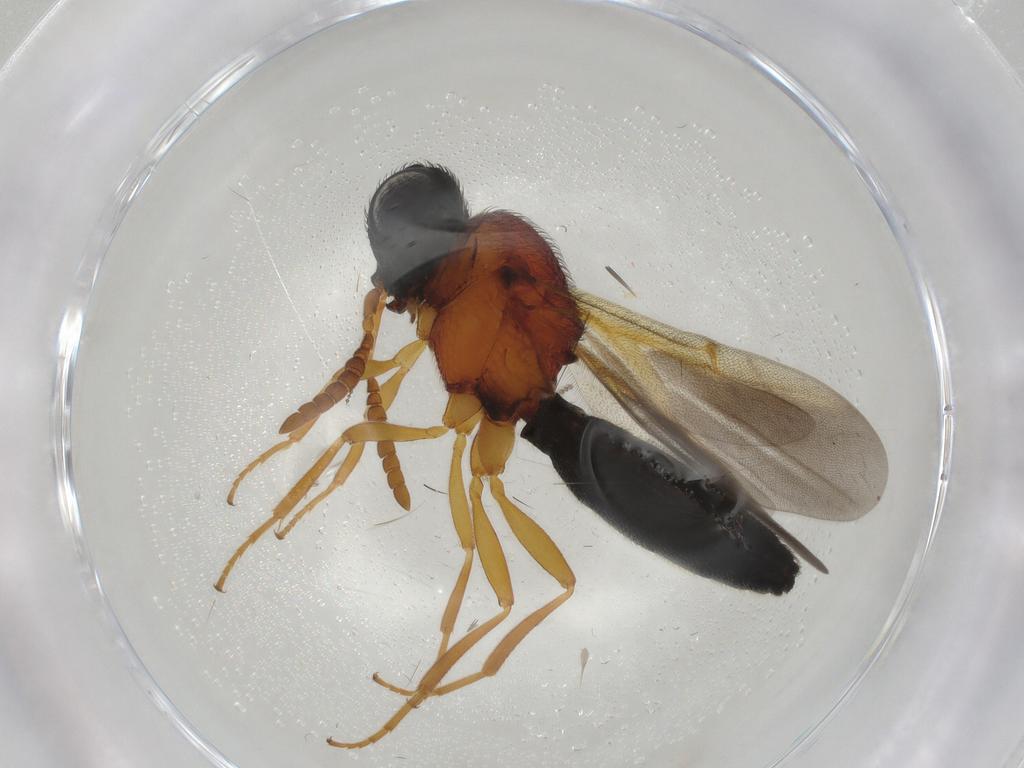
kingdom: Animalia
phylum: Arthropoda
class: Insecta
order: Hymenoptera
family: Scelionidae
